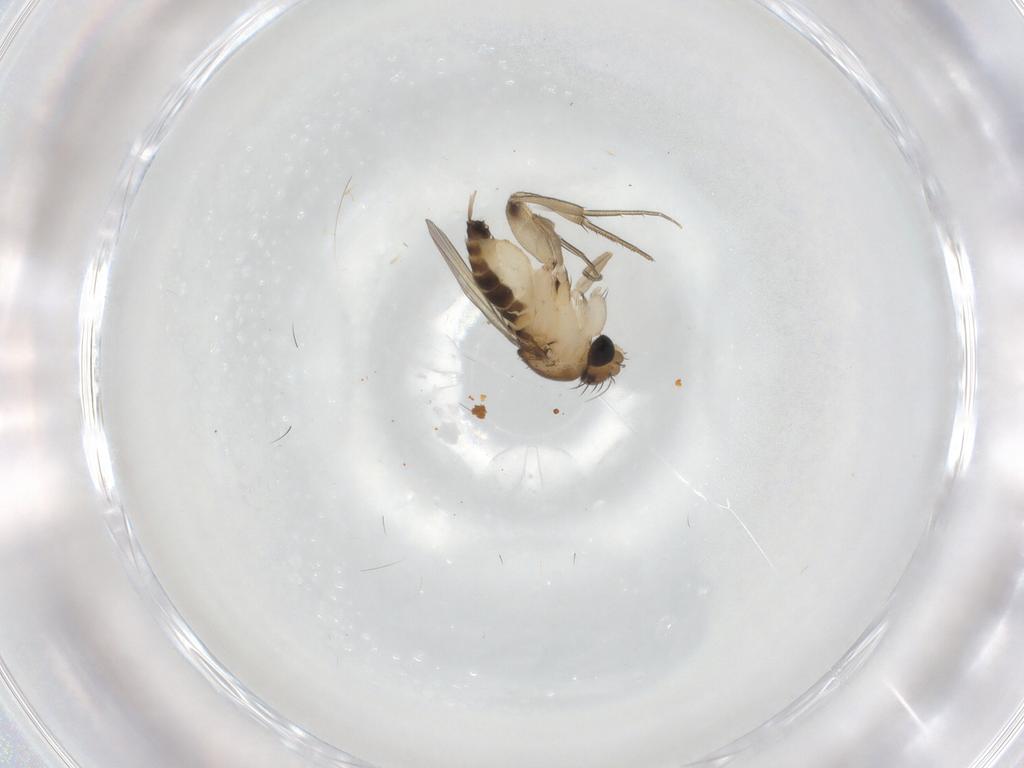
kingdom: Animalia
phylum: Arthropoda
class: Insecta
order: Diptera
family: Phoridae
